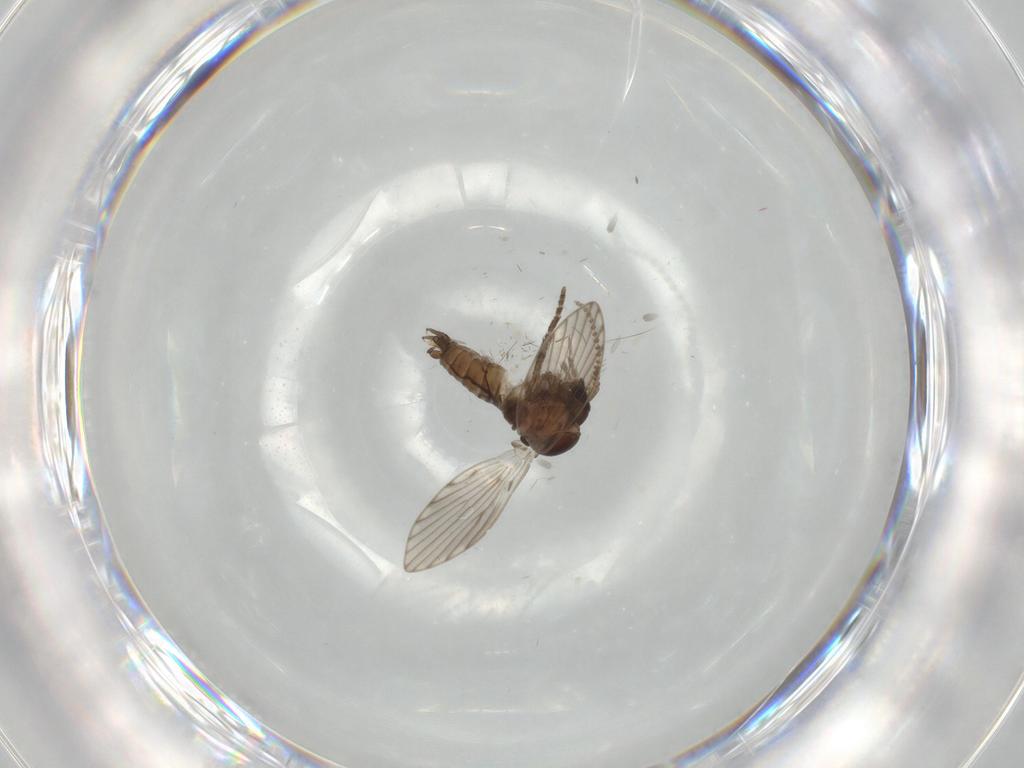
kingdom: Animalia
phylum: Arthropoda
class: Insecta
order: Diptera
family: Psychodidae
